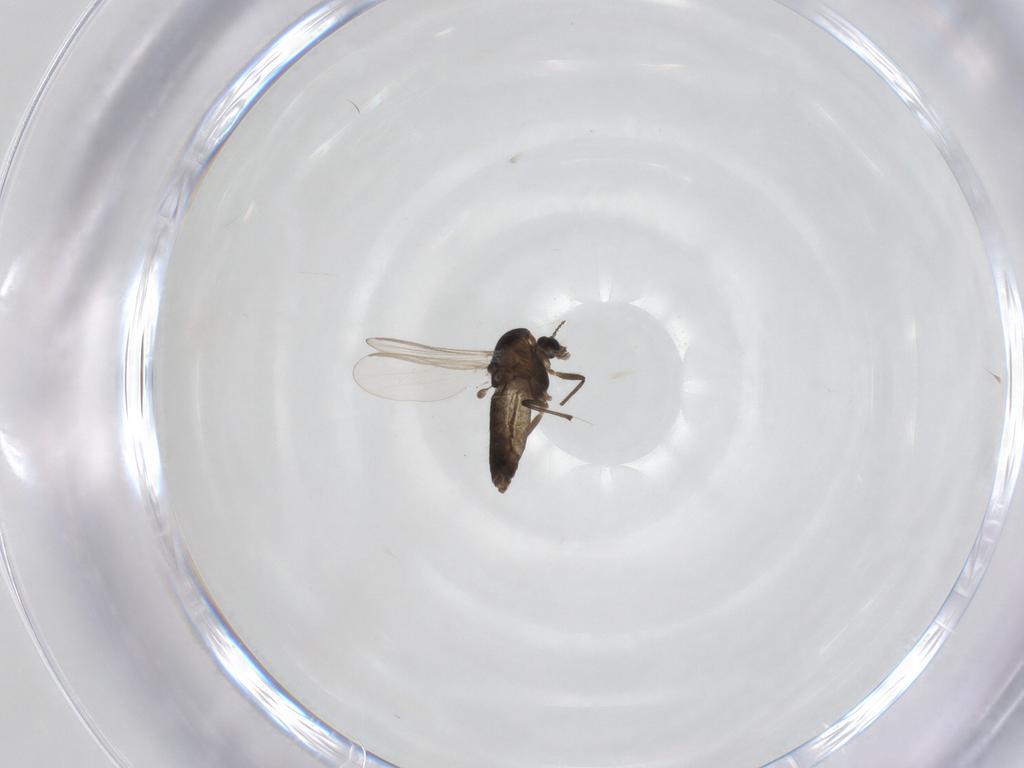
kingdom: Animalia
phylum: Arthropoda
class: Insecta
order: Diptera
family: Chironomidae
